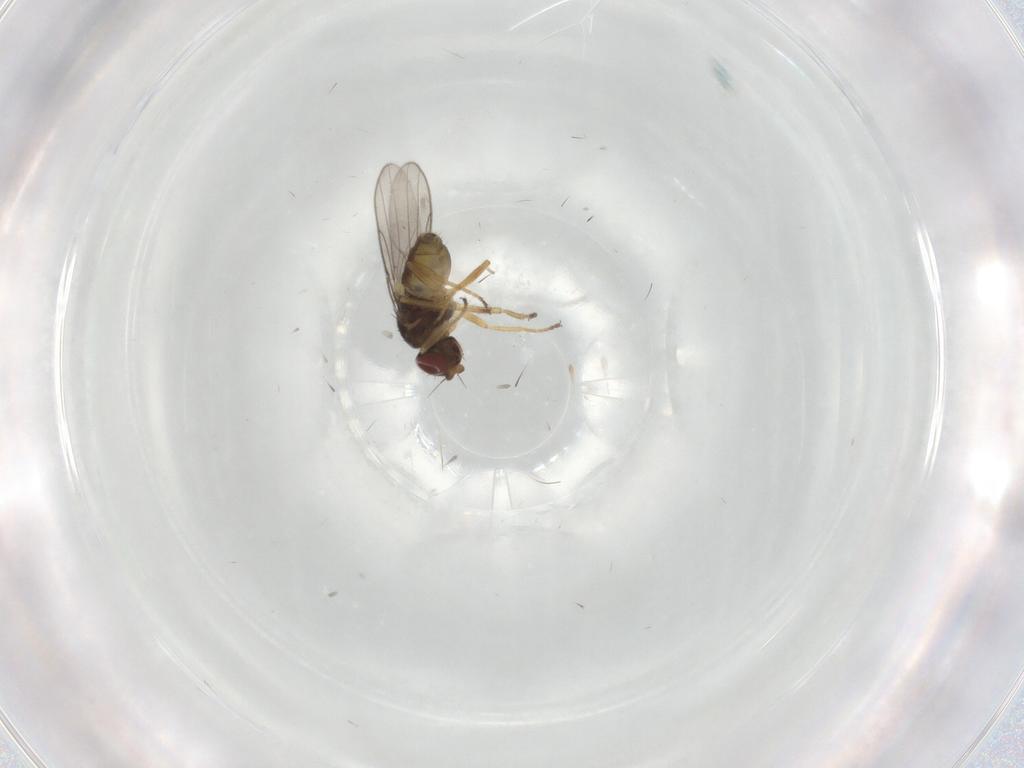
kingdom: Animalia
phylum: Arthropoda
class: Insecta
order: Diptera
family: Chloropidae
